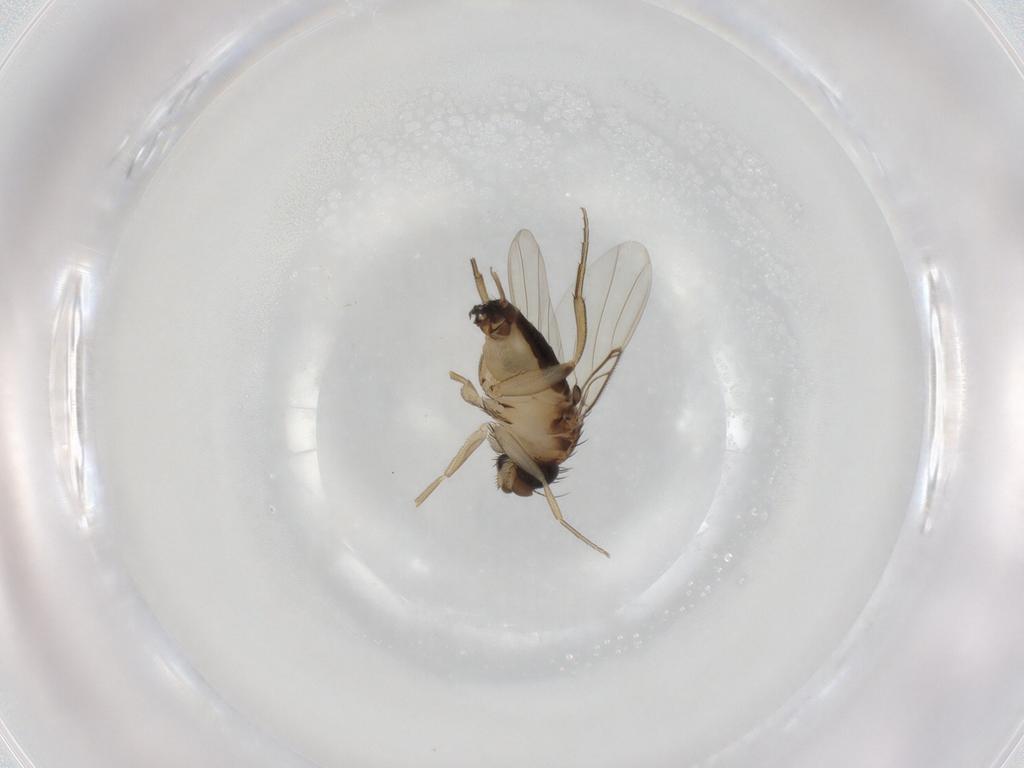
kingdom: Animalia
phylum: Arthropoda
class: Insecta
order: Diptera
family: Phoridae
